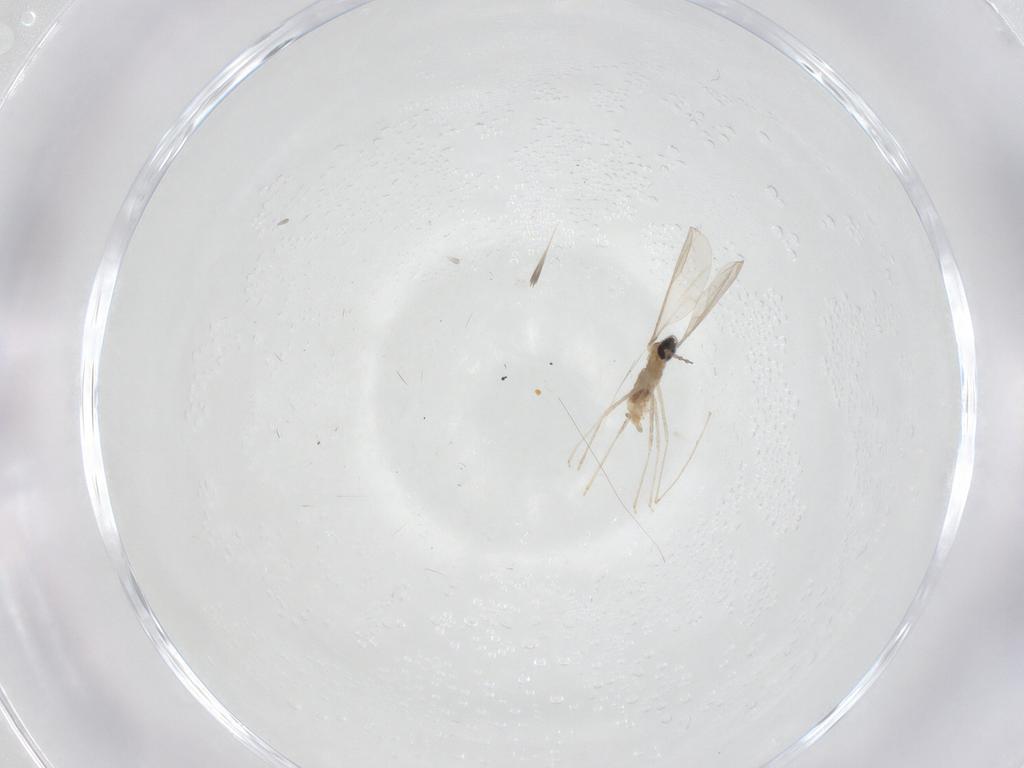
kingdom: Animalia
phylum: Arthropoda
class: Insecta
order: Diptera
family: Cecidomyiidae
